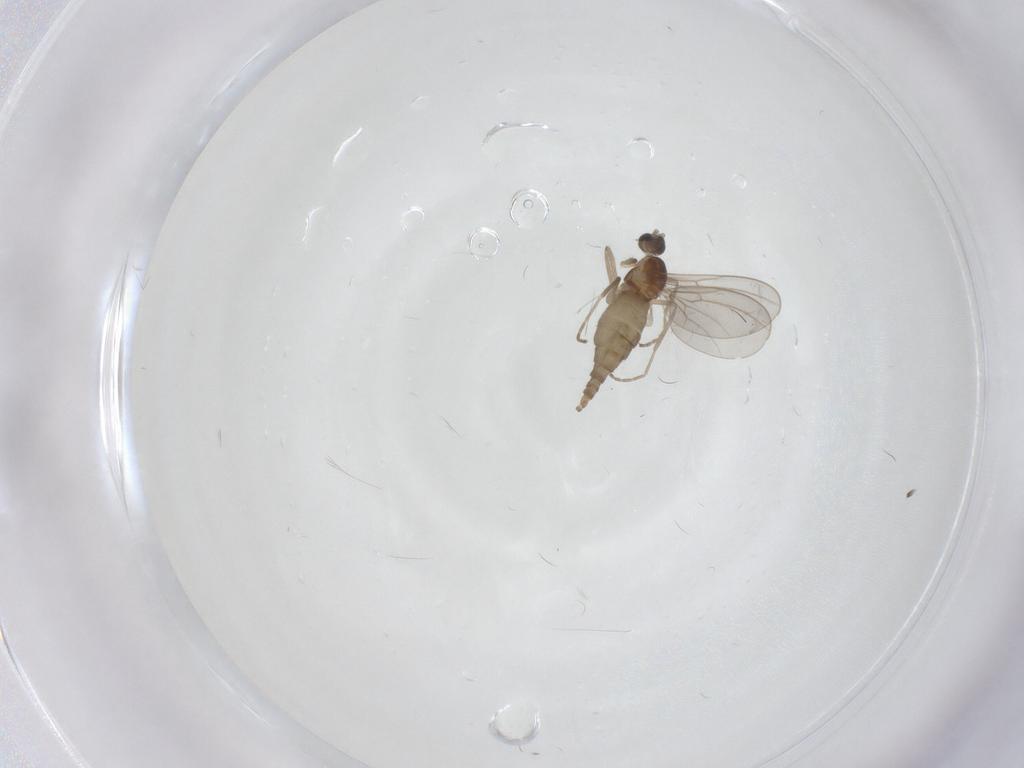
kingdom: Animalia
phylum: Arthropoda
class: Insecta
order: Diptera
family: Cecidomyiidae
